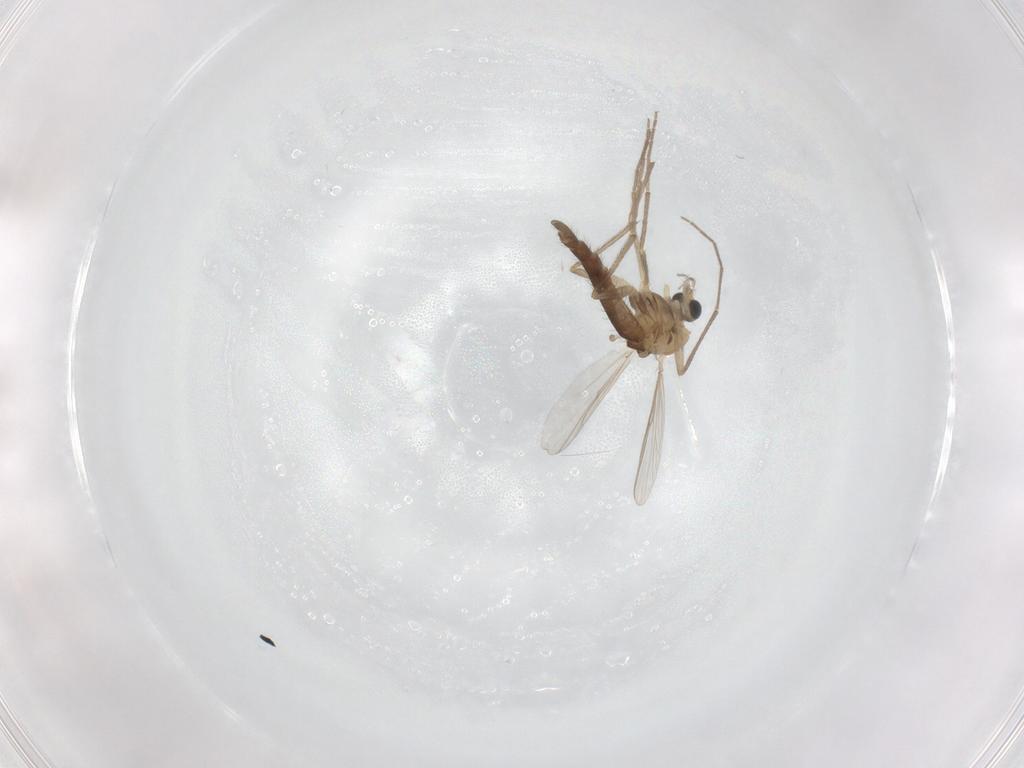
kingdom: Animalia
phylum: Arthropoda
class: Insecta
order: Diptera
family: Chironomidae
